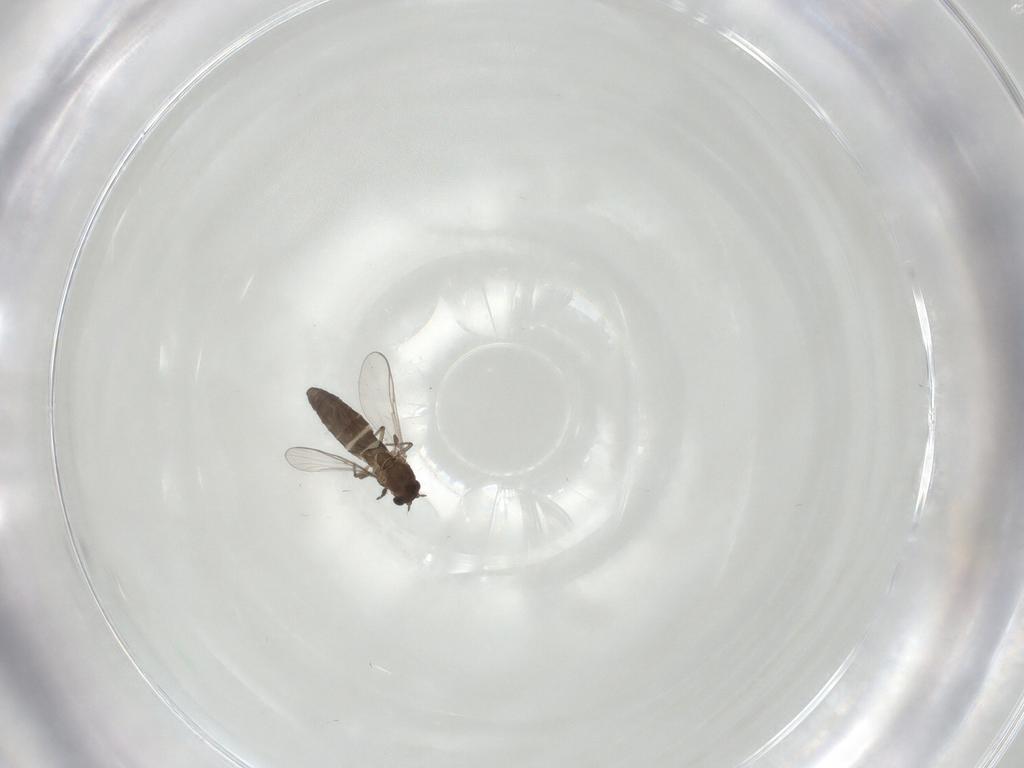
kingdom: Animalia
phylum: Arthropoda
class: Insecta
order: Diptera
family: Chironomidae
